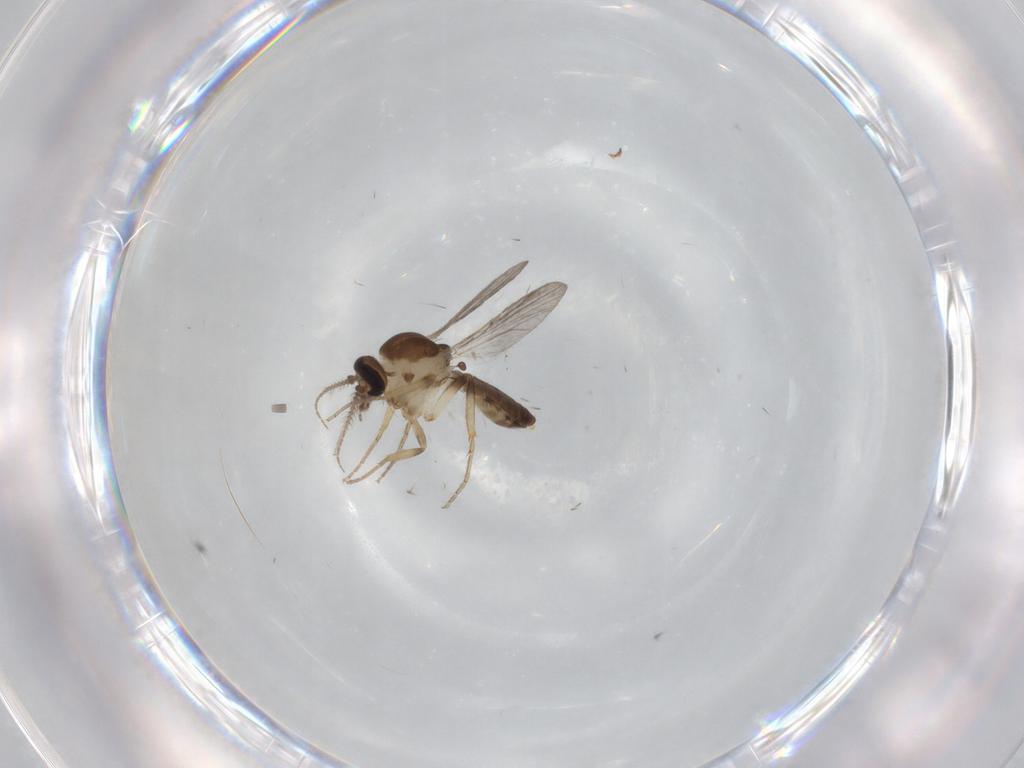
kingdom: Animalia
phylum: Arthropoda
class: Insecta
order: Diptera
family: Ceratopogonidae
